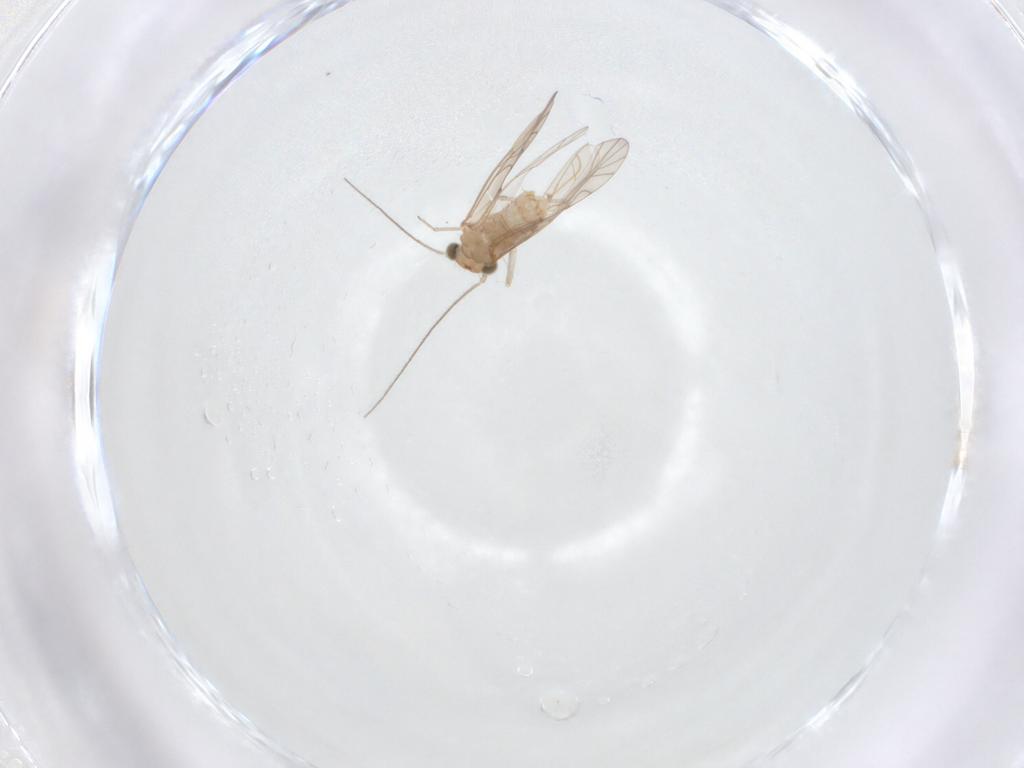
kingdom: Animalia
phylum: Arthropoda
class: Insecta
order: Psocodea
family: Lachesillidae
